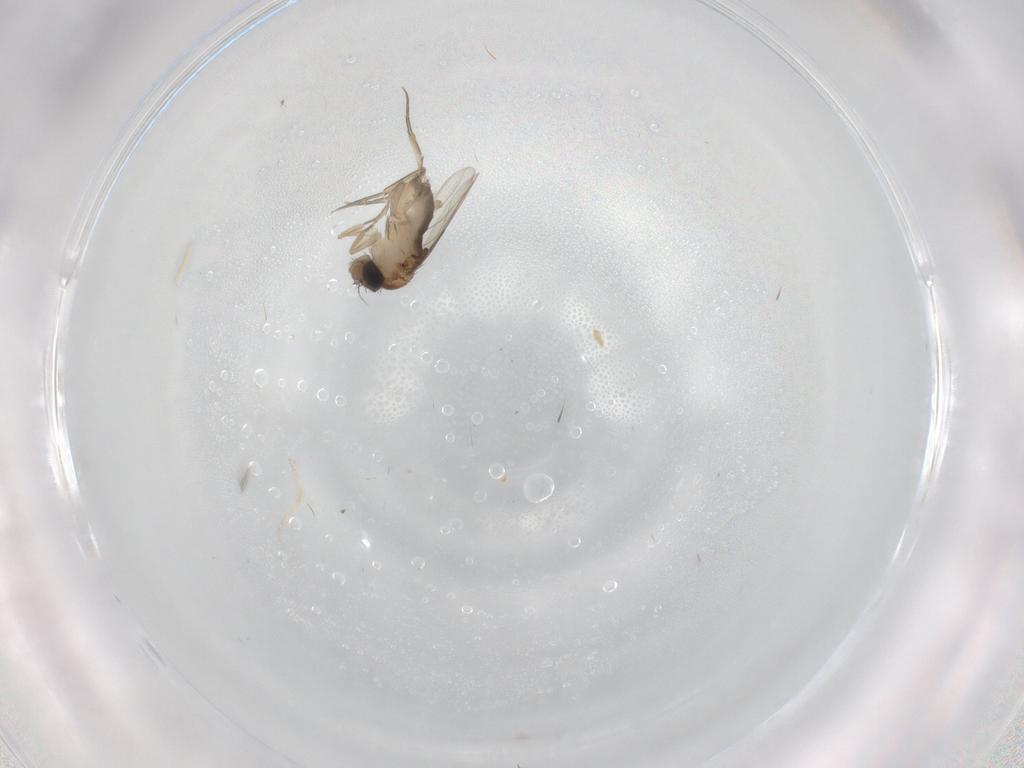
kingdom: Animalia
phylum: Arthropoda
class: Insecta
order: Diptera
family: Phoridae
